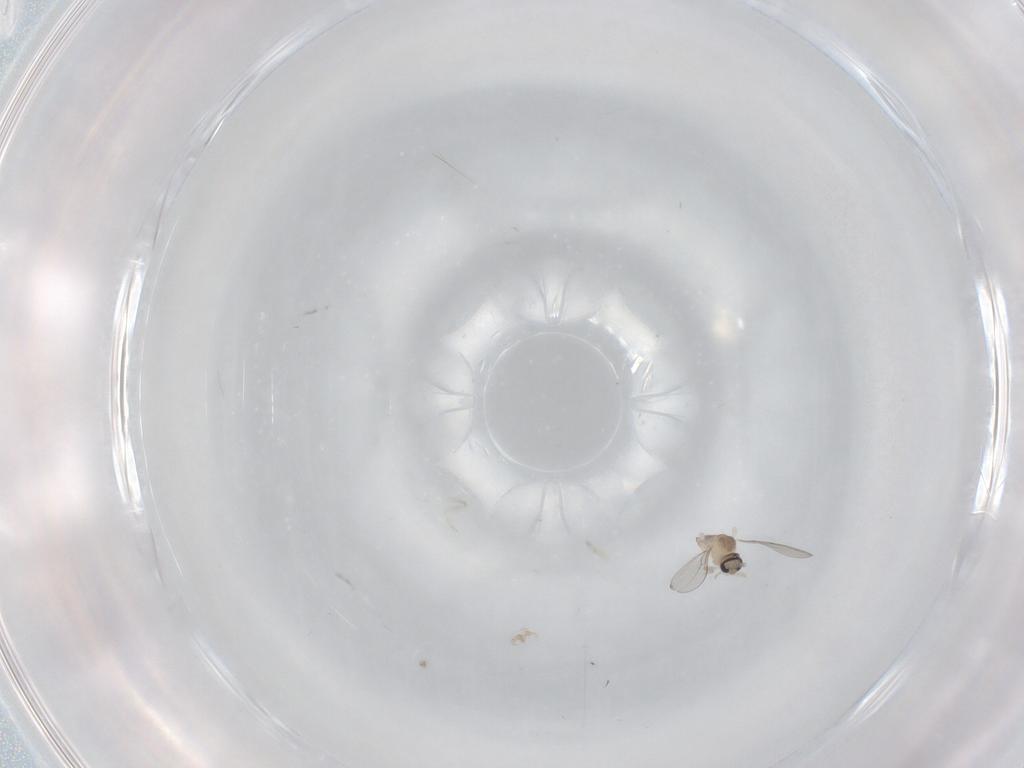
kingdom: Animalia
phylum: Arthropoda
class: Insecta
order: Diptera
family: Cecidomyiidae
